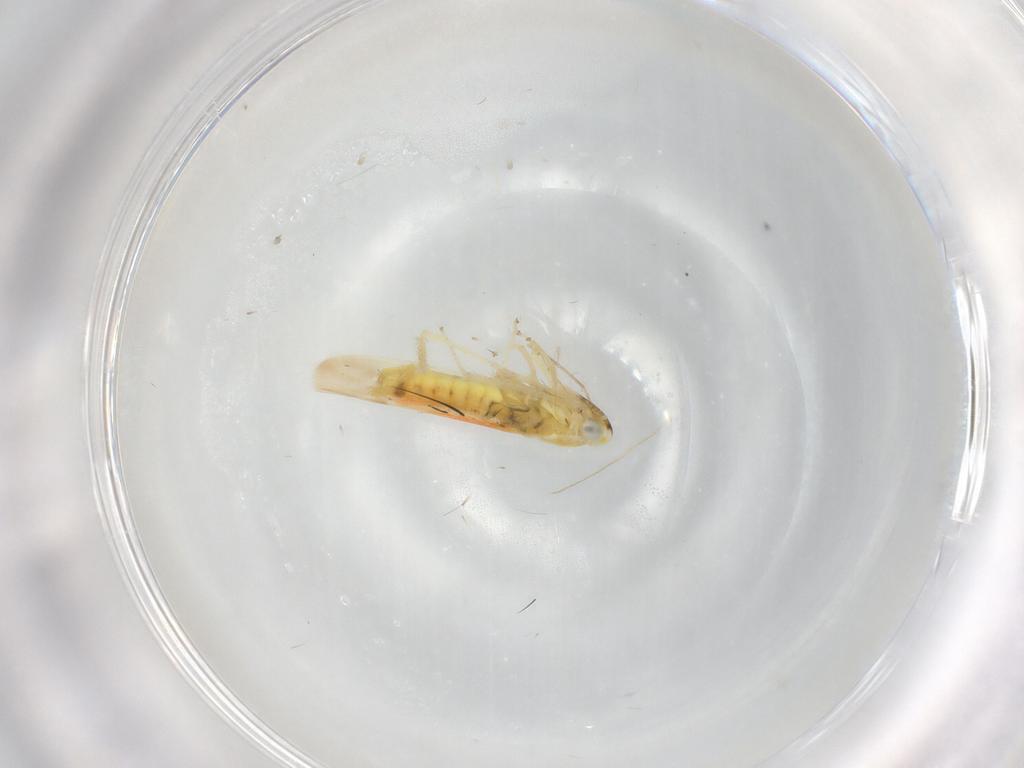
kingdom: Animalia
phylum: Arthropoda
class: Insecta
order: Hemiptera
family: Cicadellidae
